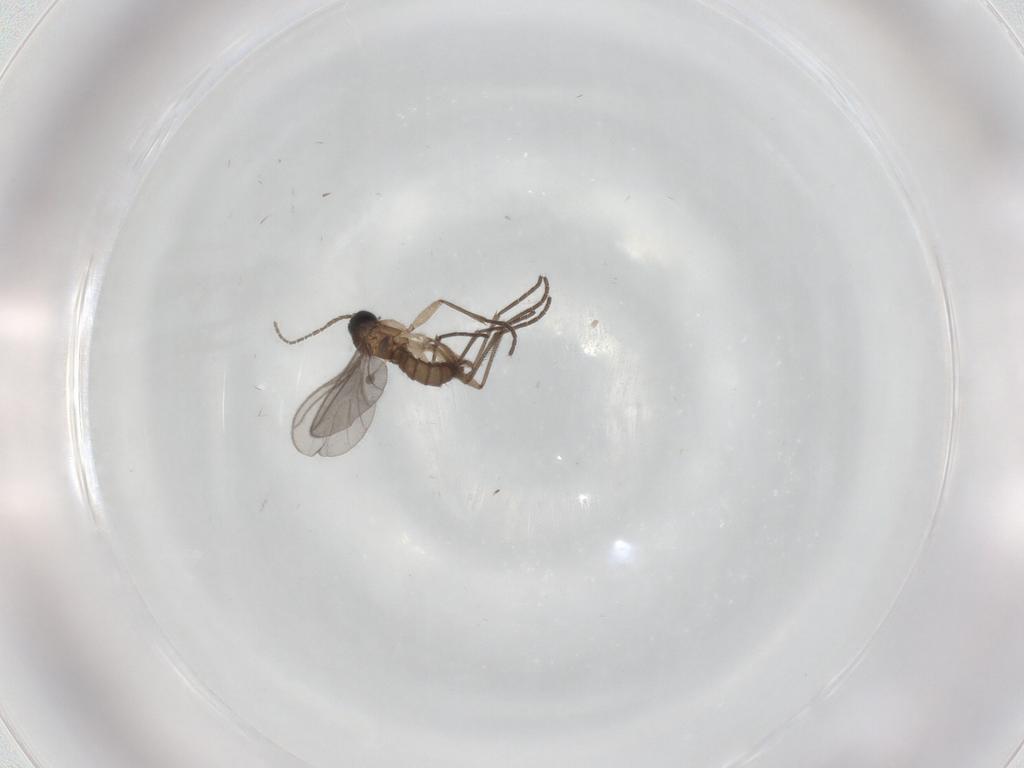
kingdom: Animalia
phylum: Arthropoda
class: Insecta
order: Diptera
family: Sciaridae
